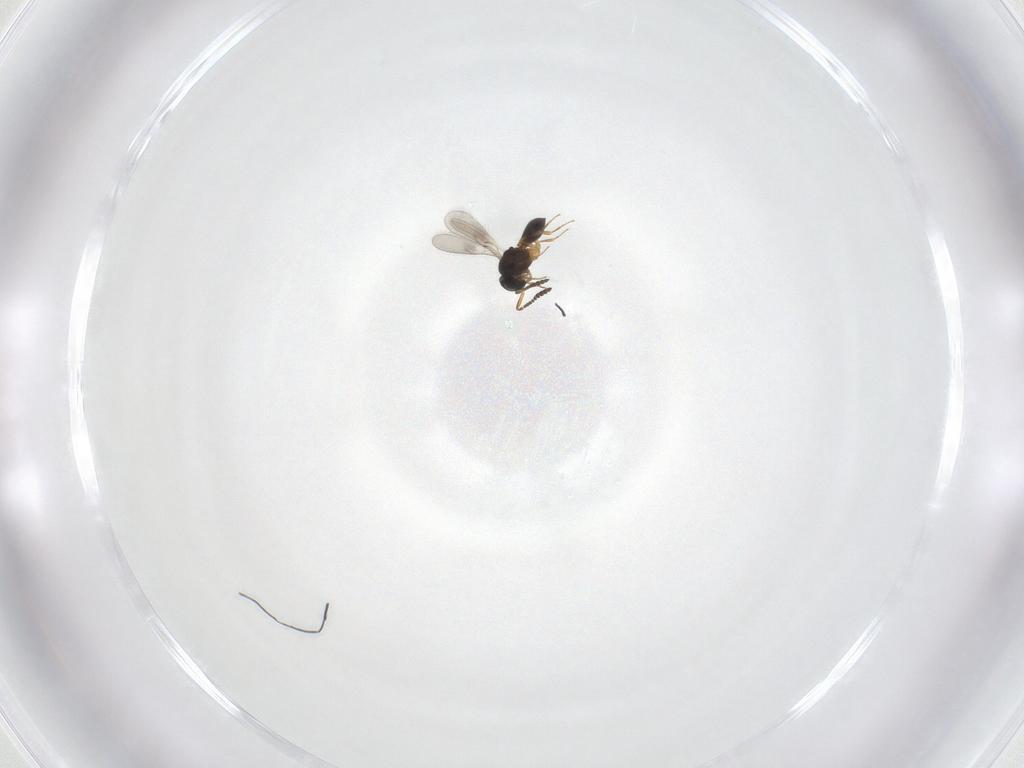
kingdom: Animalia
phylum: Arthropoda
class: Insecta
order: Hymenoptera
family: Scelionidae
